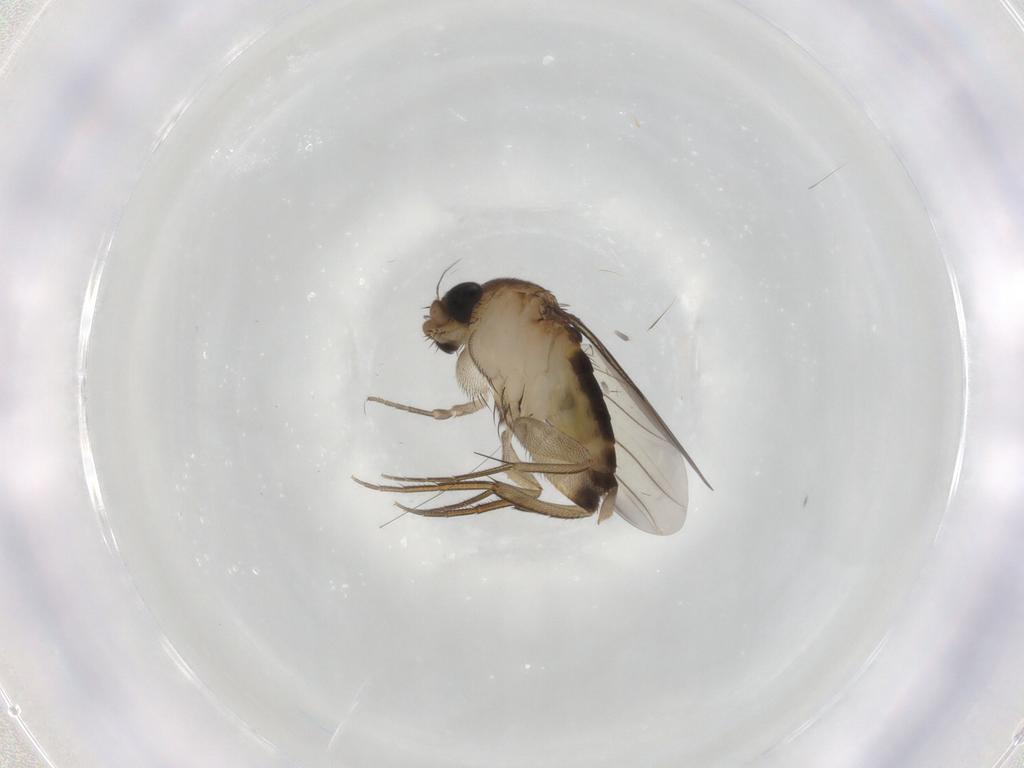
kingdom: Animalia
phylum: Arthropoda
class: Insecta
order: Diptera
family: Phoridae
